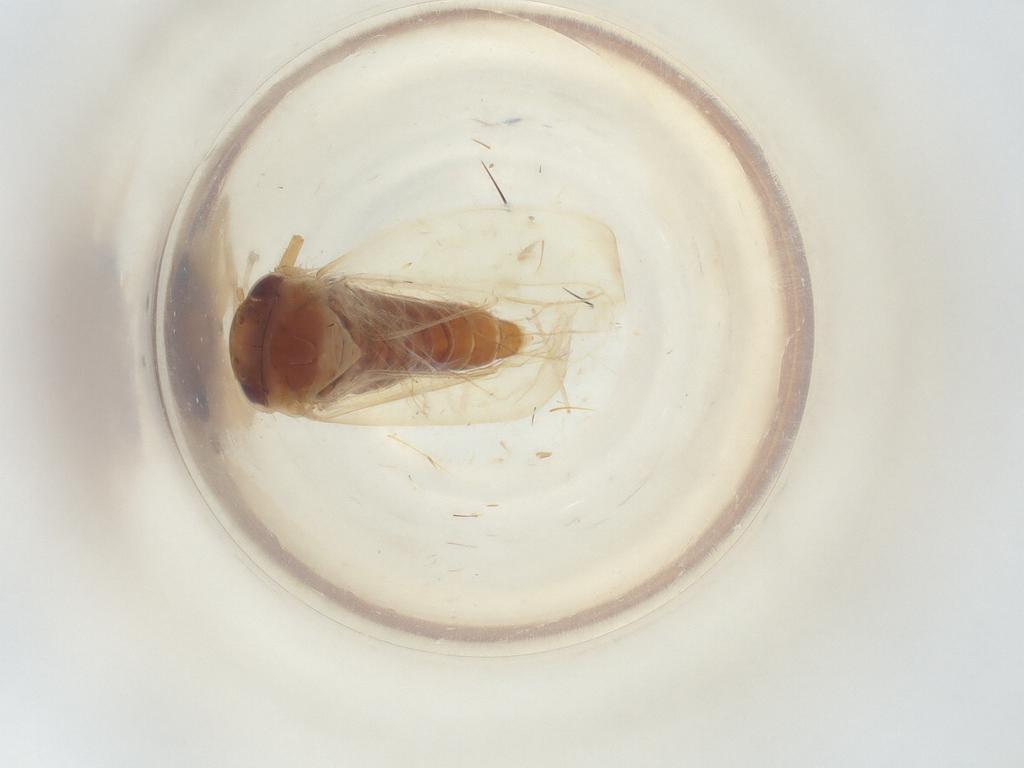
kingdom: Animalia
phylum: Arthropoda
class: Insecta
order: Hemiptera
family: Cicadellidae
